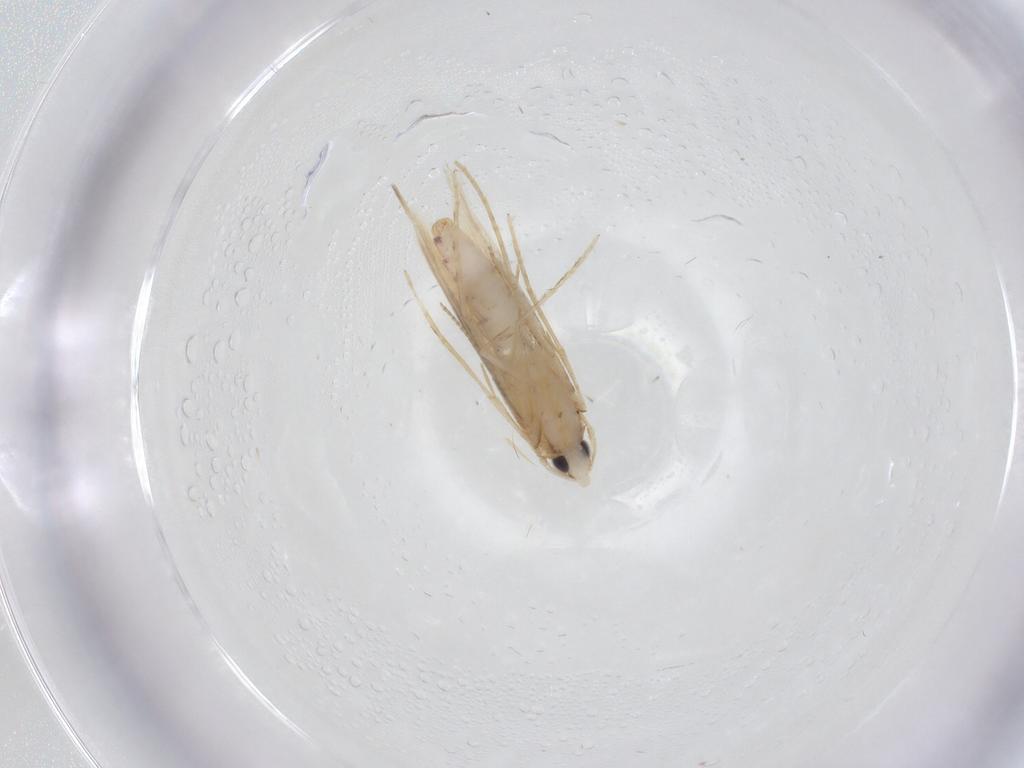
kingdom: Animalia
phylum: Arthropoda
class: Insecta
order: Lepidoptera
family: Tineidae
